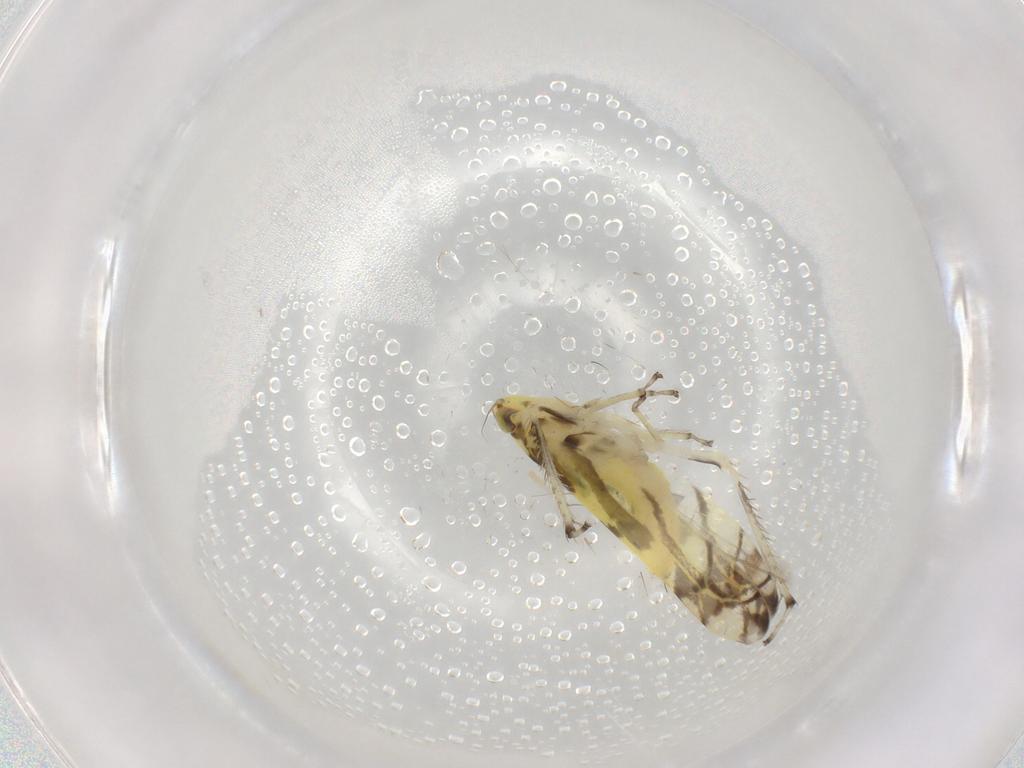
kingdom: Animalia
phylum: Arthropoda
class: Insecta
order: Hemiptera
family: Cicadellidae
